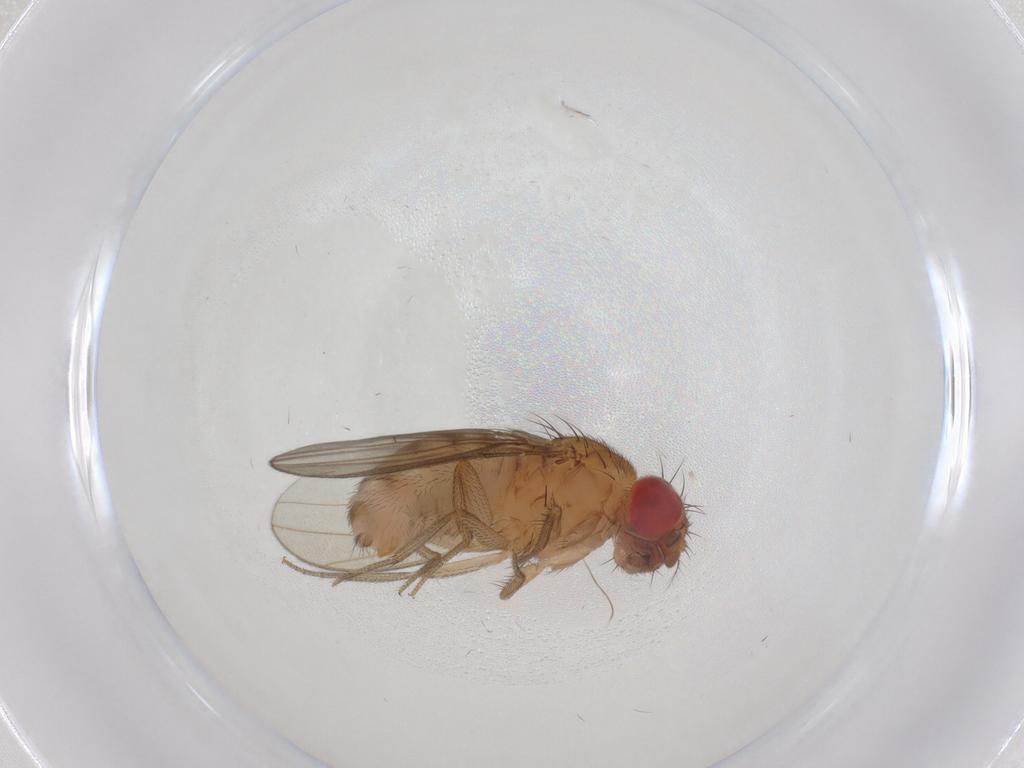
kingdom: Animalia
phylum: Arthropoda
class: Insecta
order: Diptera
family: Drosophilidae
